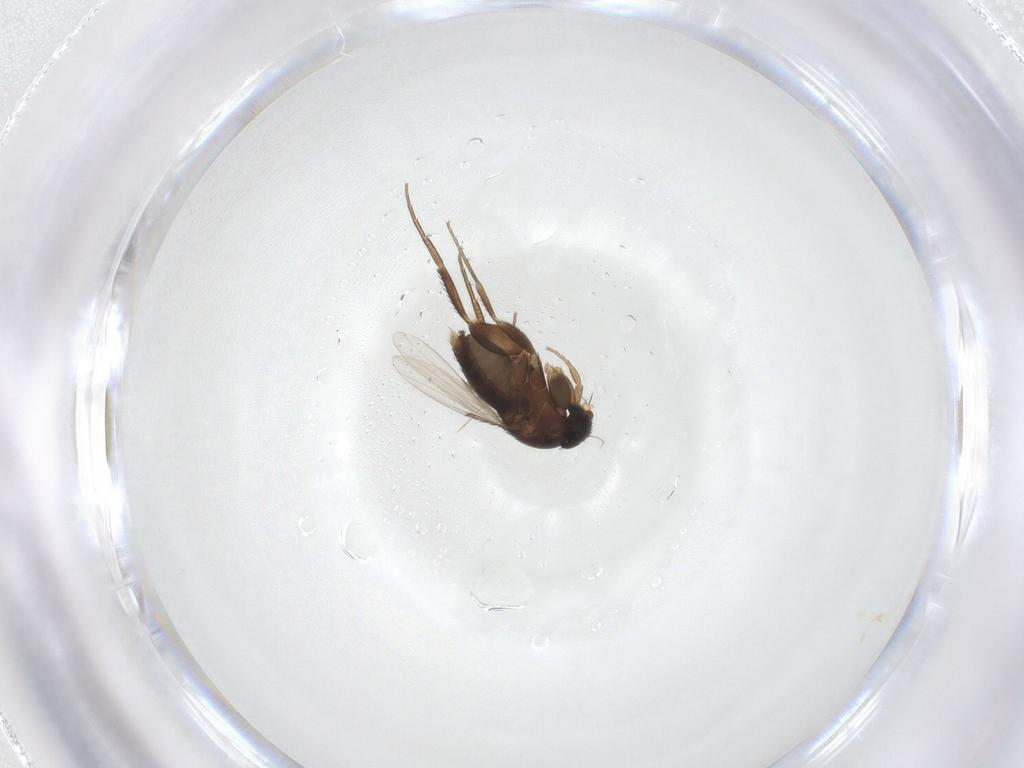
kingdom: Animalia
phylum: Arthropoda
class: Insecta
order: Diptera
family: Phoridae
